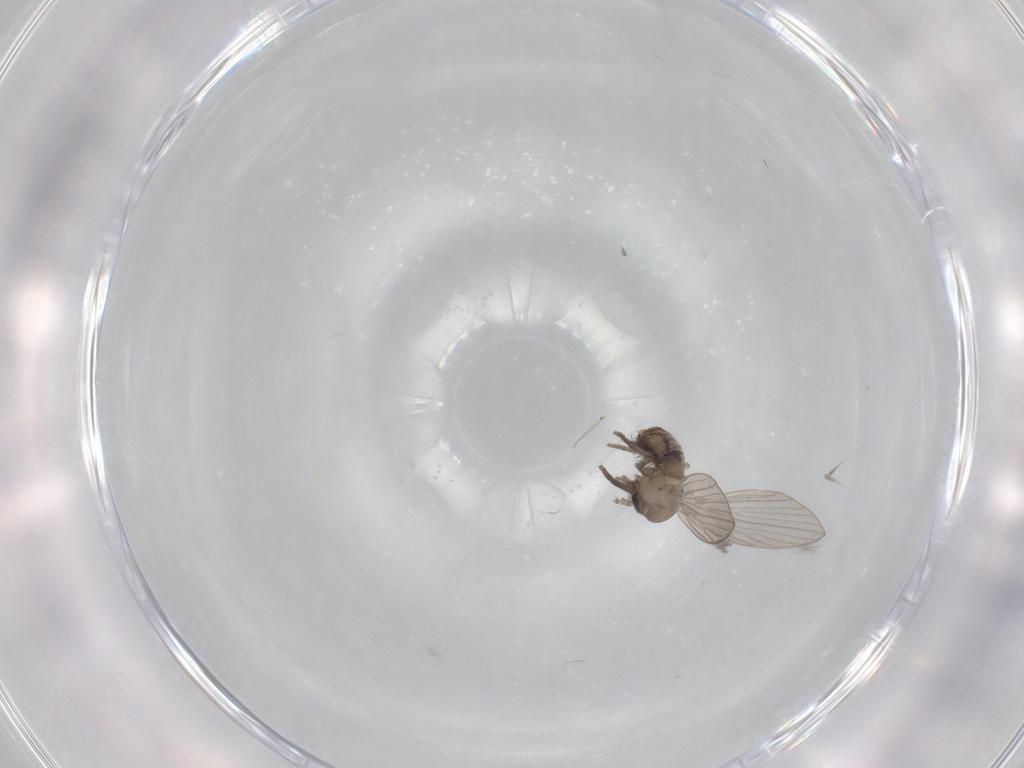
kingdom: Animalia
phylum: Arthropoda
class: Insecta
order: Diptera
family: Psychodidae
